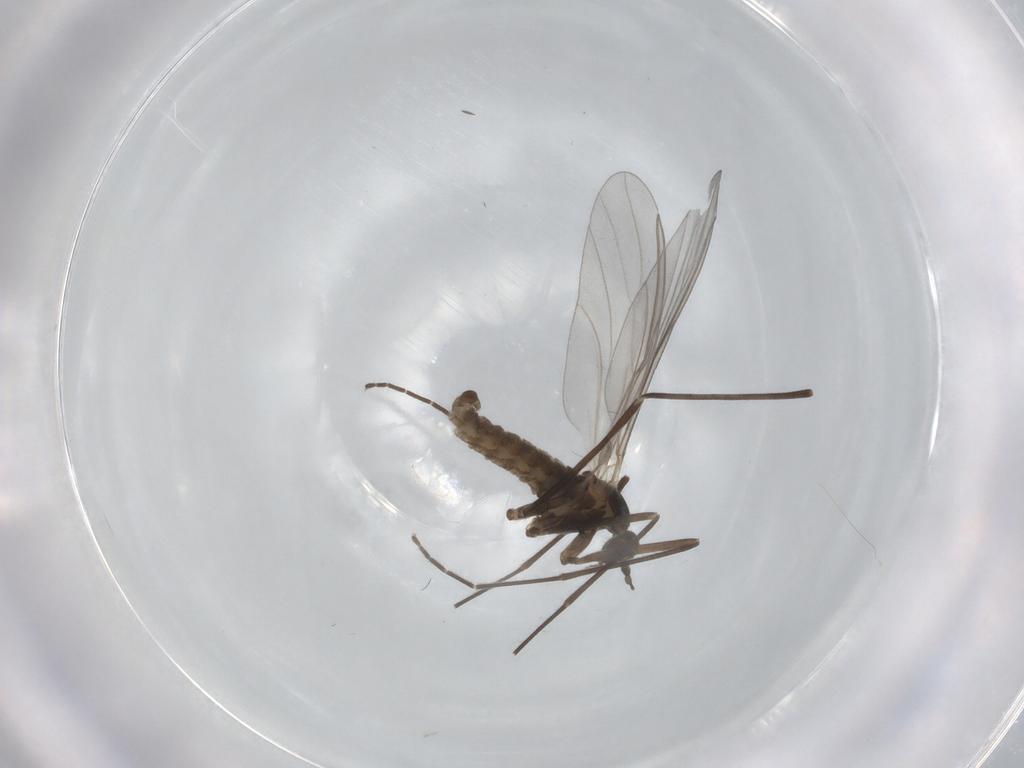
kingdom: Animalia
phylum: Arthropoda
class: Insecta
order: Diptera
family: Cecidomyiidae
